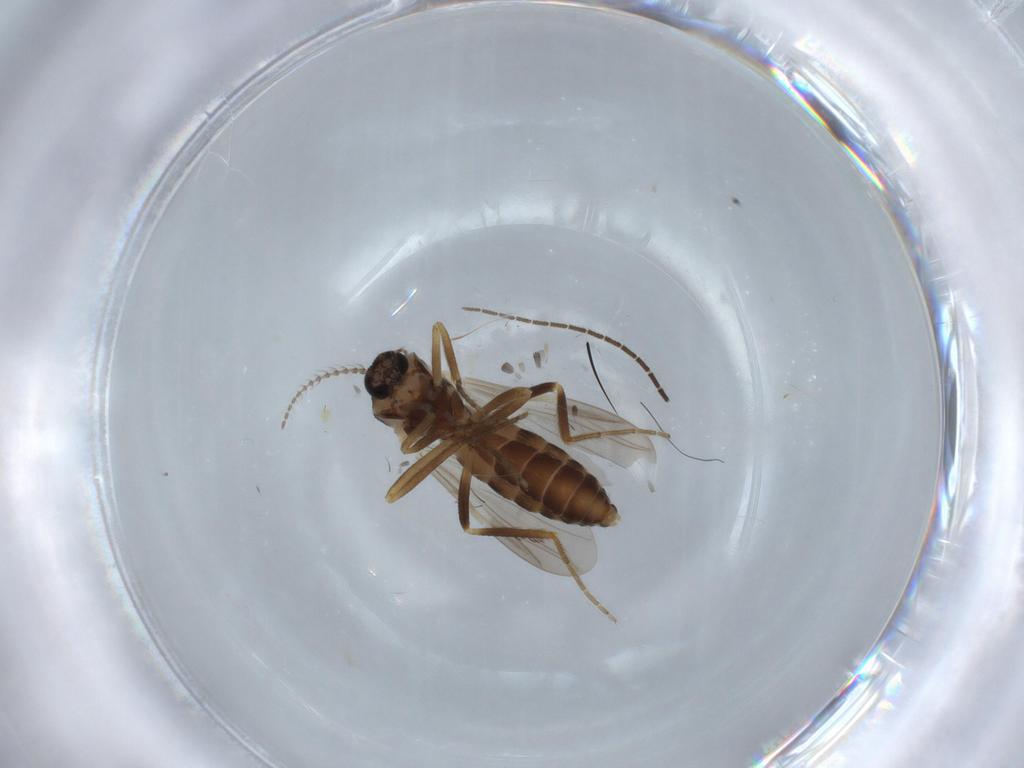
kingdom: Animalia
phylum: Arthropoda
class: Insecta
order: Diptera
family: Ceratopogonidae
